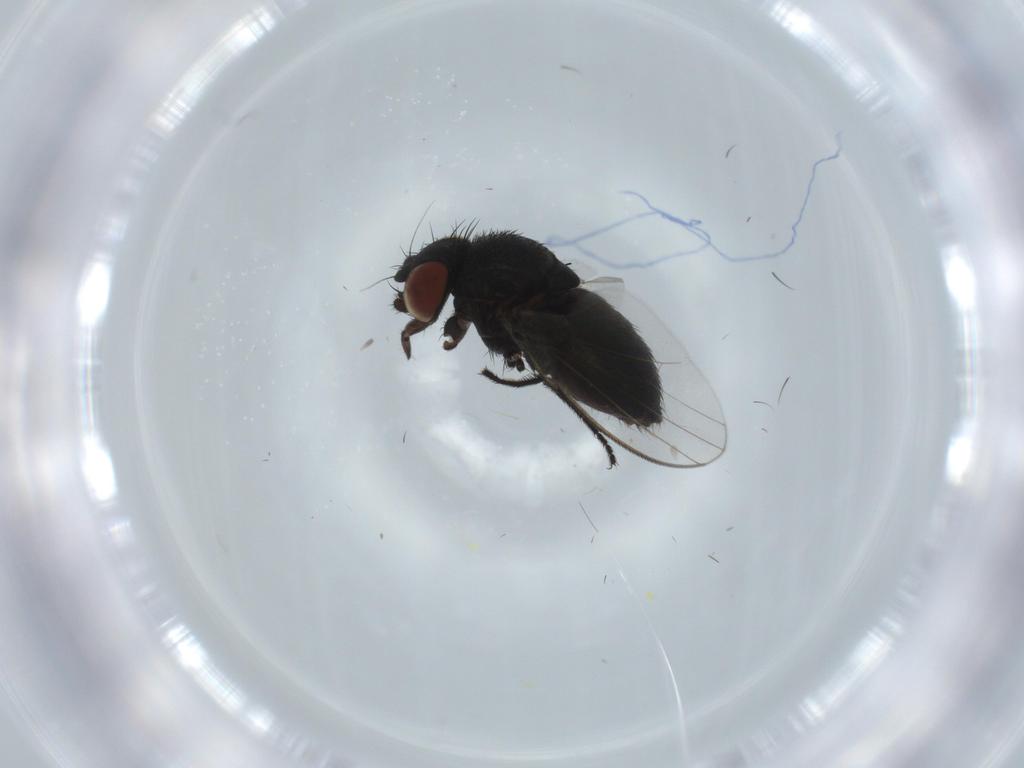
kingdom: Animalia
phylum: Arthropoda
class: Insecta
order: Diptera
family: Milichiidae
